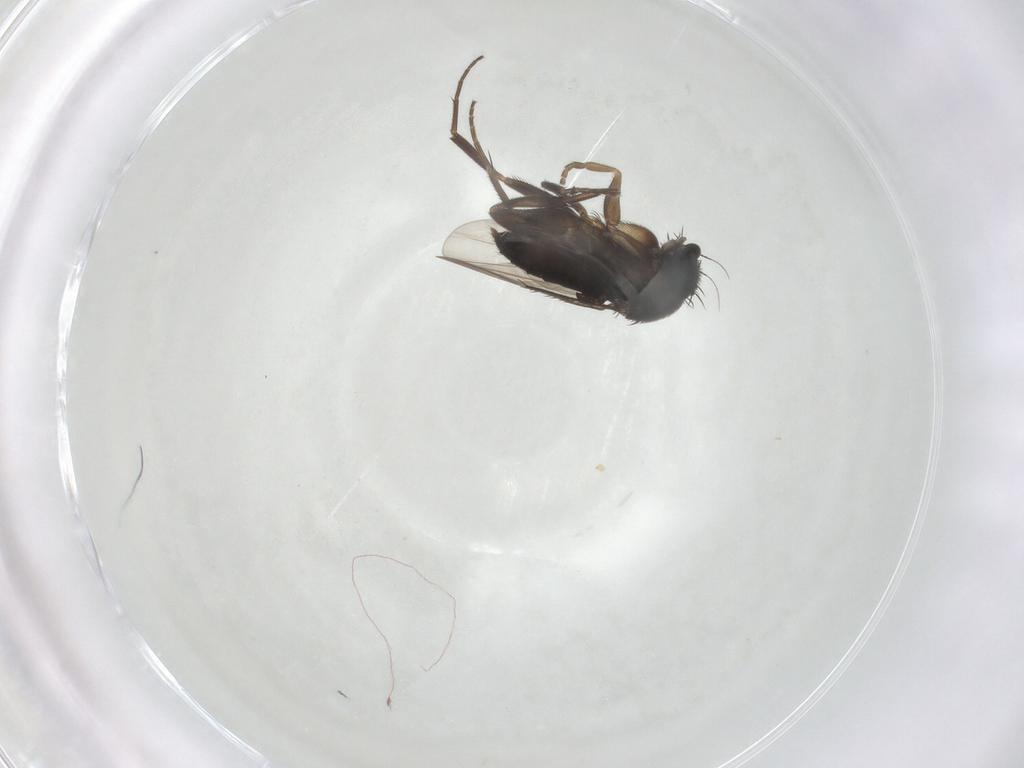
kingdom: Animalia
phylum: Arthropoda
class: Insecta
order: Diptera
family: Phoridae
